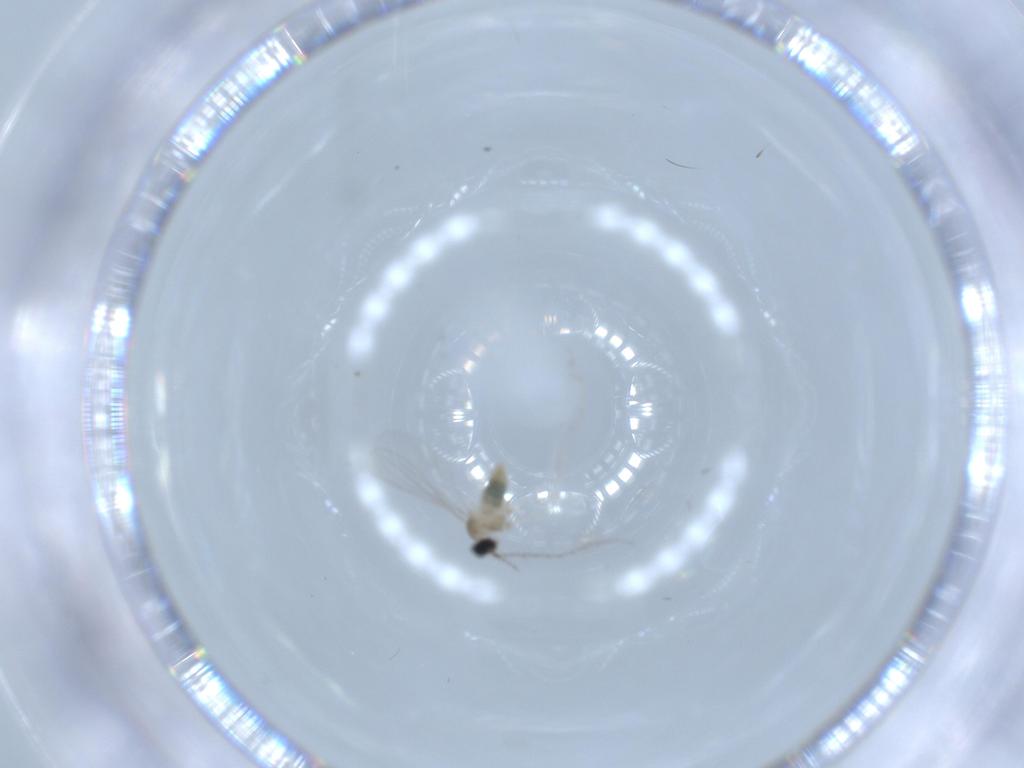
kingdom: Animalia
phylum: Arthropoda
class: Insecta
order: Diptera
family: Cecidomyiidae
